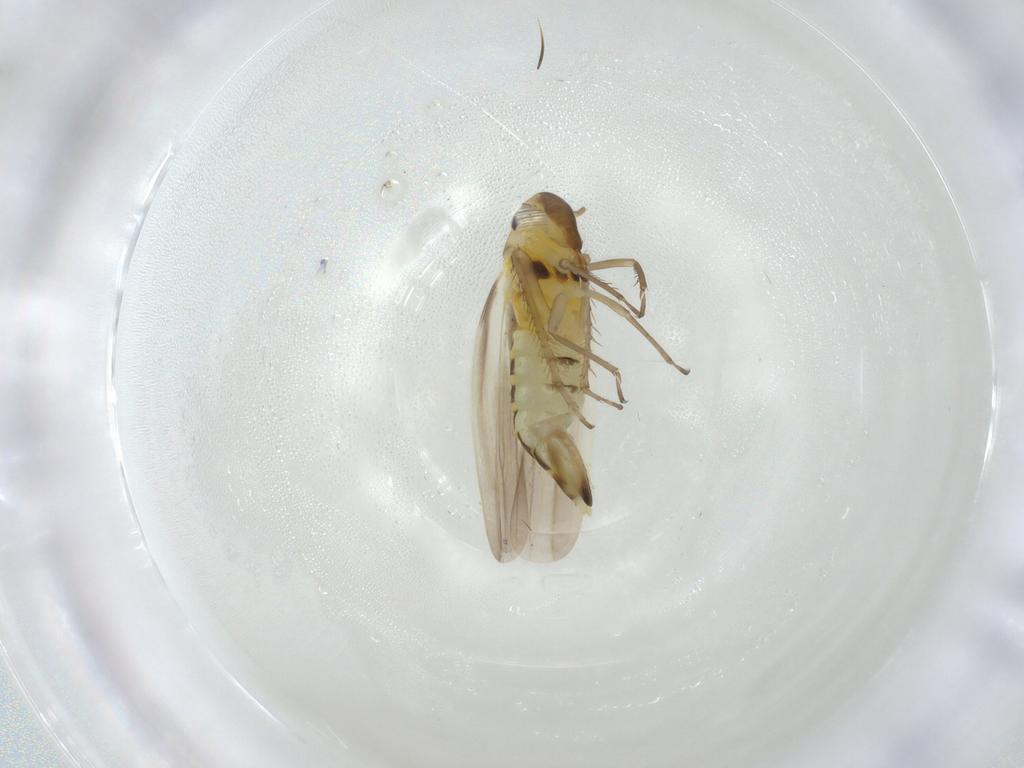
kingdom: Animalia
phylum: Arthropoda
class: Insecta
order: Hemiptera
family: Cicadellidae
